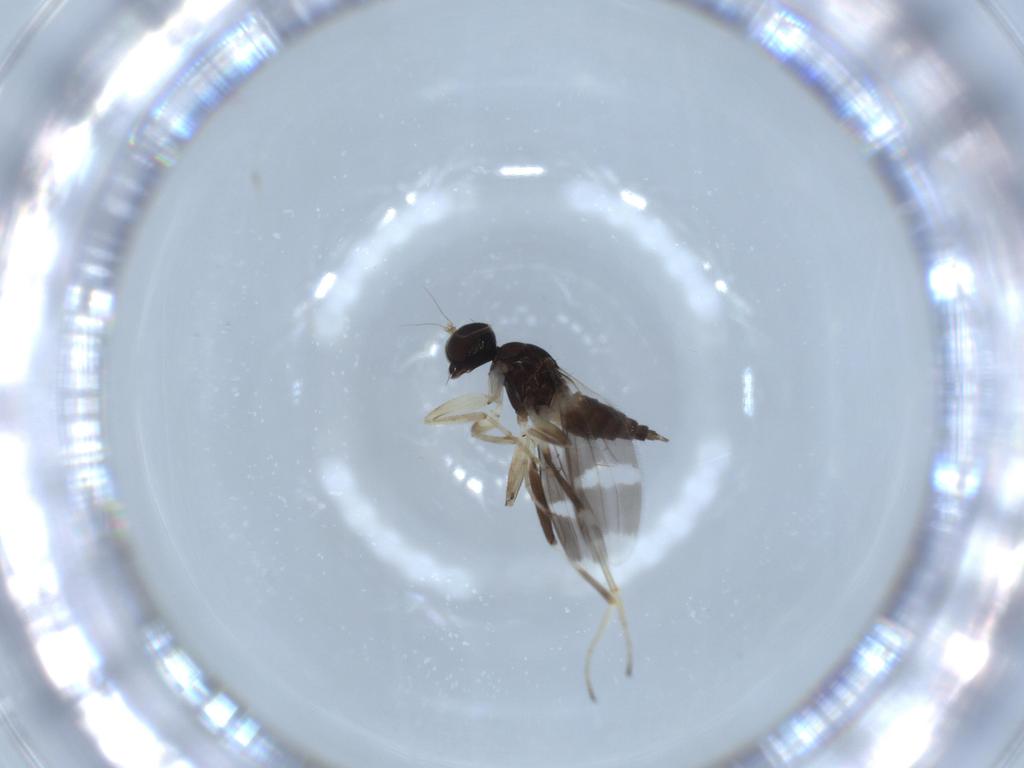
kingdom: Animalia
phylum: Arthropoda
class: Insecta
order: Diptera
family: Hybotidae
